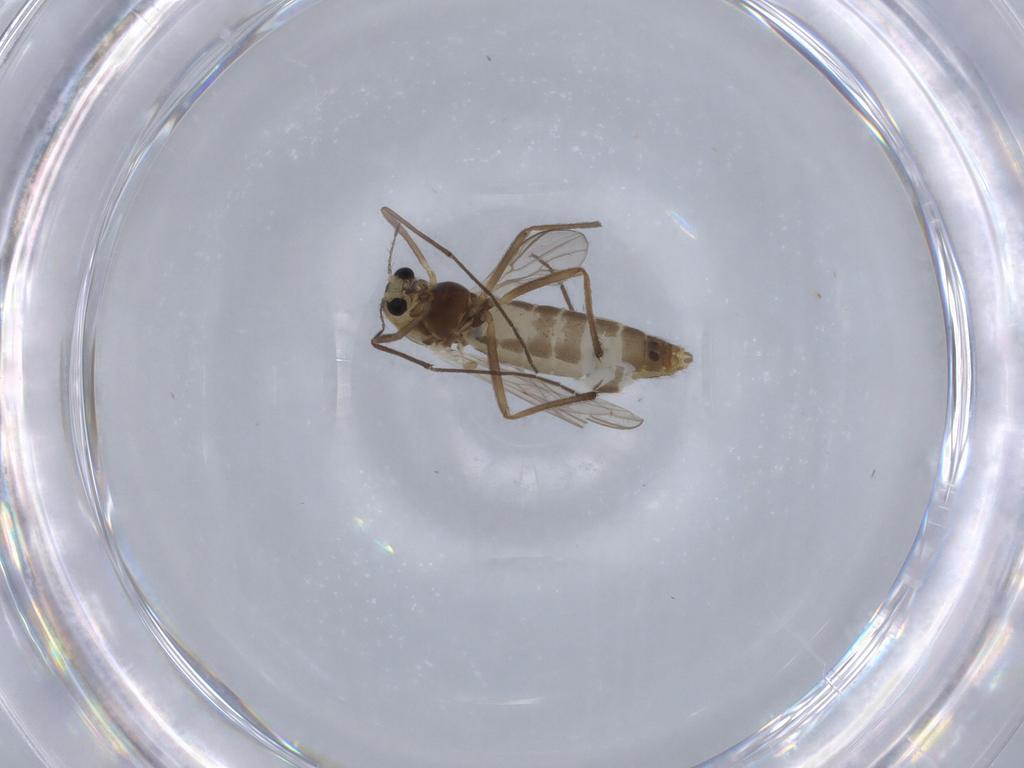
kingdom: Animalia
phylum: Arthropoda
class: Insecta
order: Diptera
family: Chironomidae
